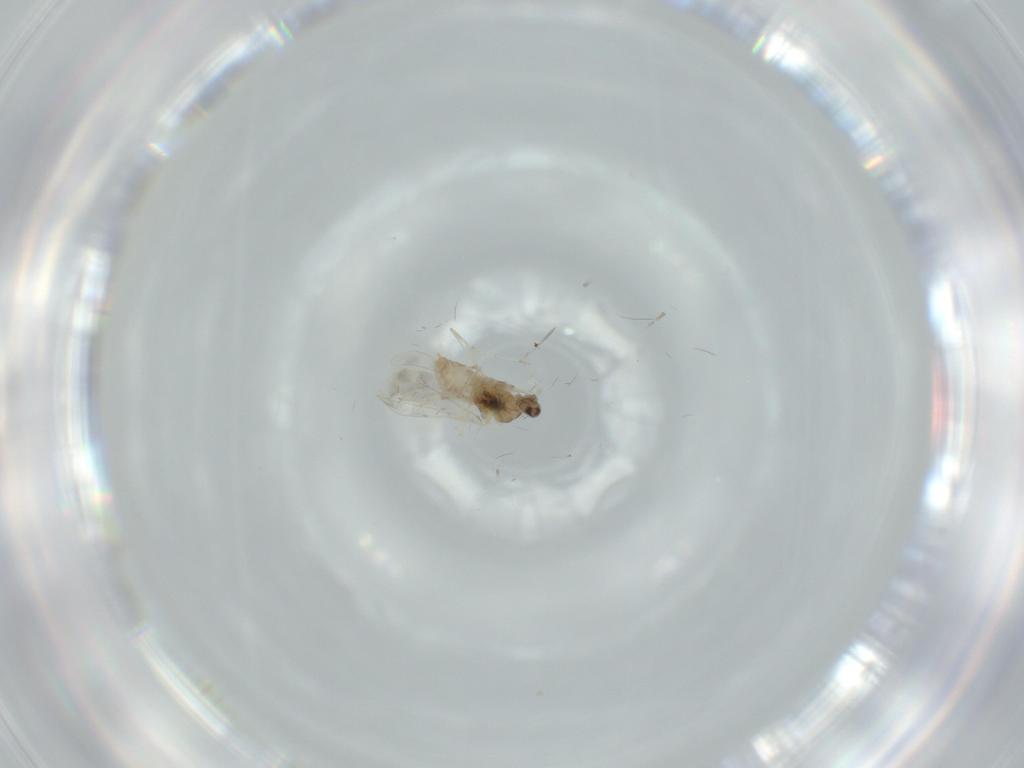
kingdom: Animalia
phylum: Arthropoda
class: Insecta
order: Diptera
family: Cecidomyiidae
